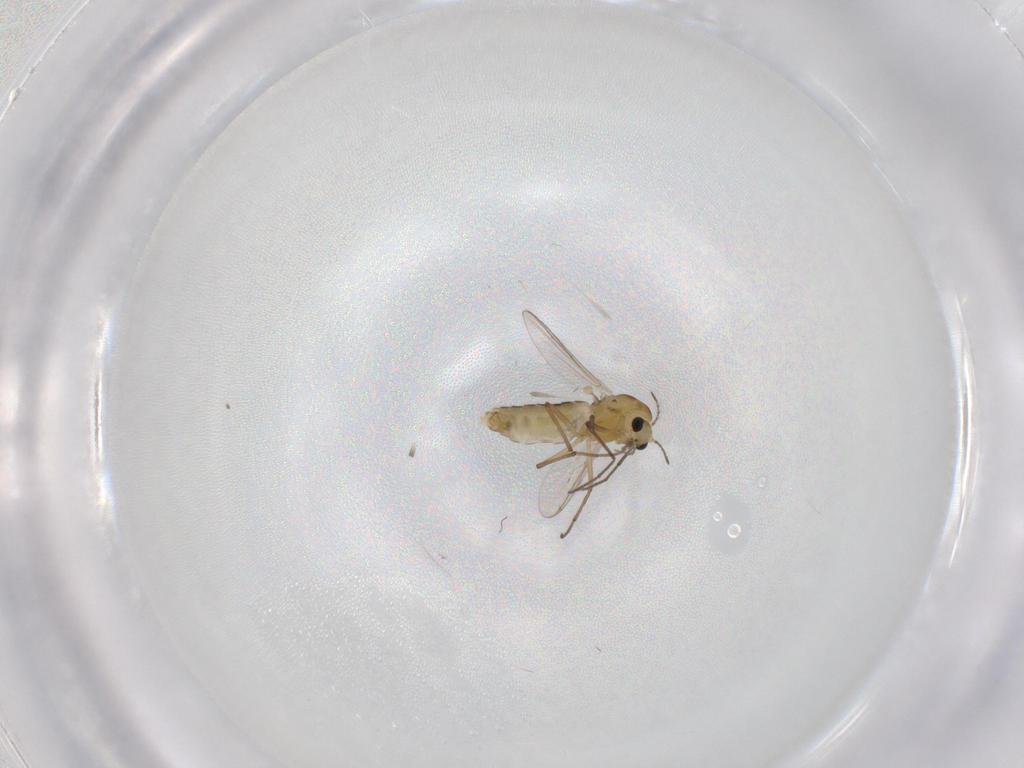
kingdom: Animalia
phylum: Arthropoda
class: Insecta
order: Diptera
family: Chironomidae
